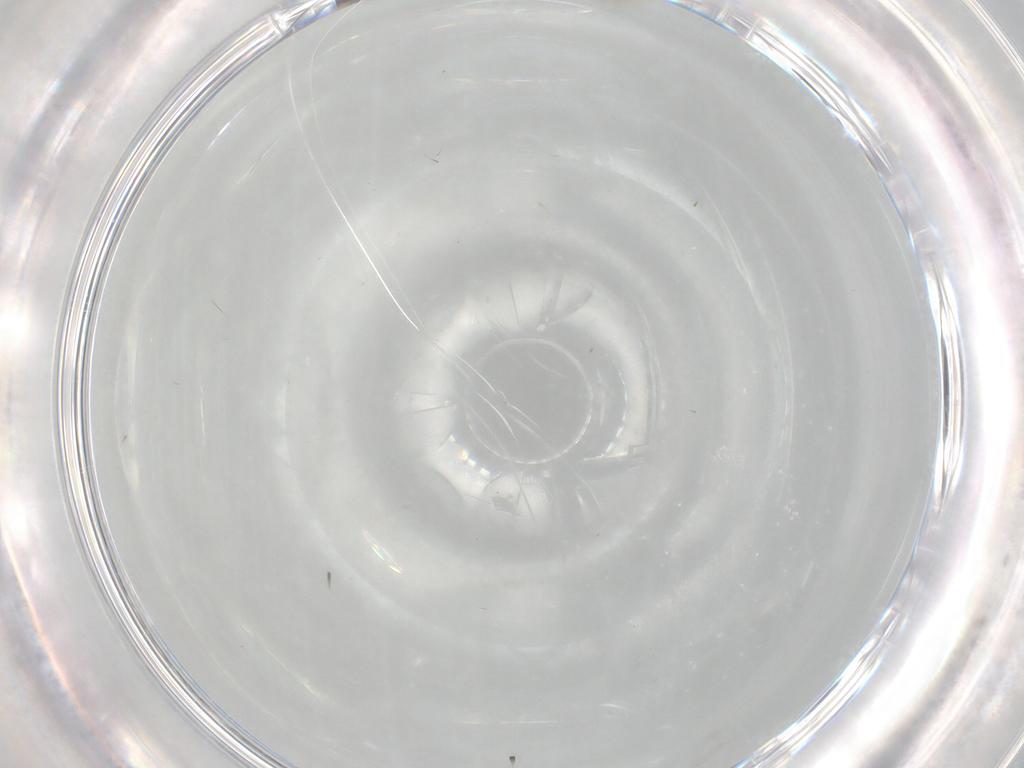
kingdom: Animalia
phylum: Arthropoda
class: Insecta
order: Diptera
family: Cecidomyiidae
